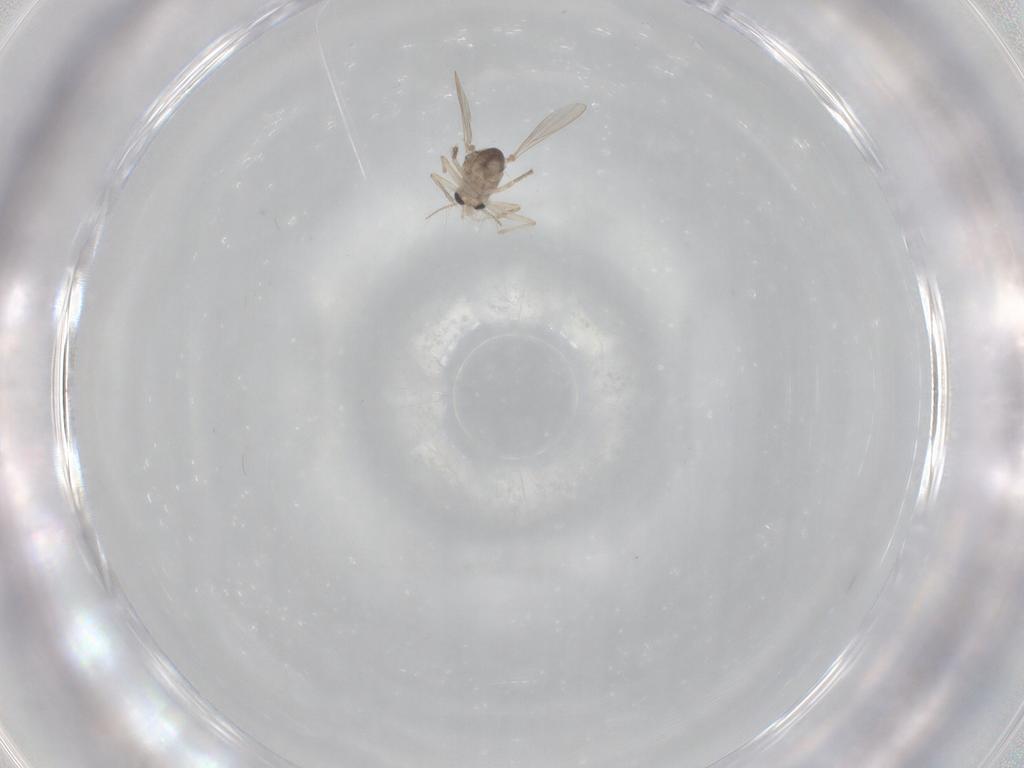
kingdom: Animalia
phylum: Arthropoda
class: Insecta
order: Diptera
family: Chironomidae
